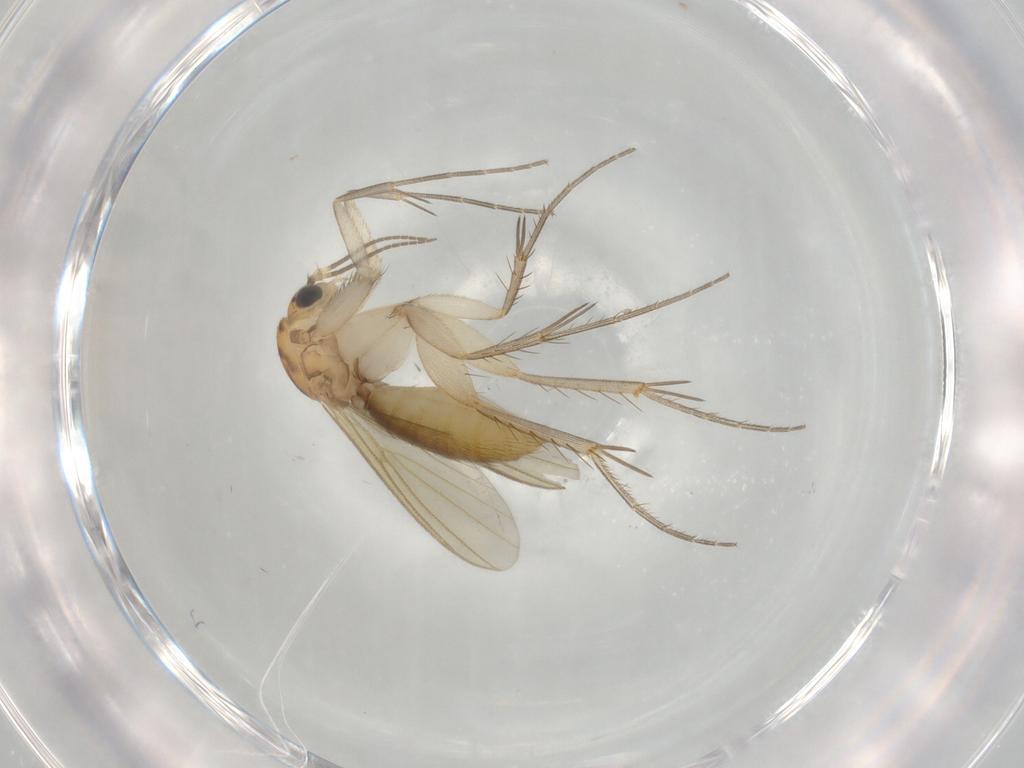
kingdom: Animalia
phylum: Arthropoda
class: Insecta
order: Diptera
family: Mycetophilidae
